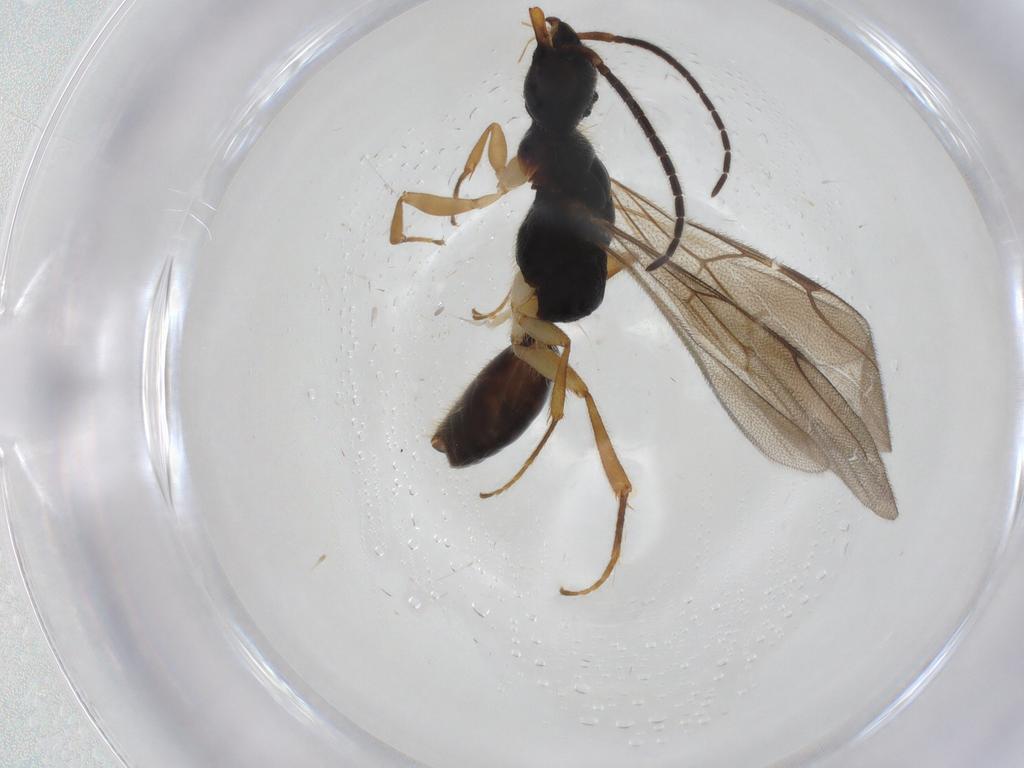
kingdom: Animalia
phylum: Arthropoda
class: Insecta
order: Hymenoptera
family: Bethylidae
